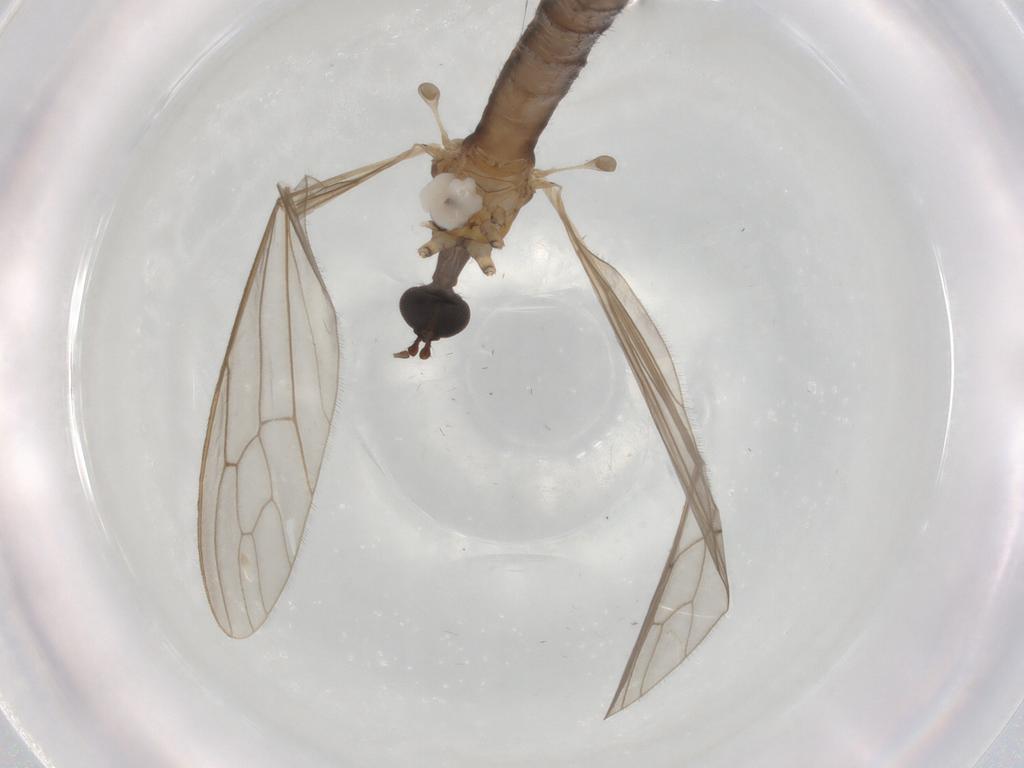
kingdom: Animalia
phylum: Arthropoda
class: Insecta
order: Diptera
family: Limoniidae
